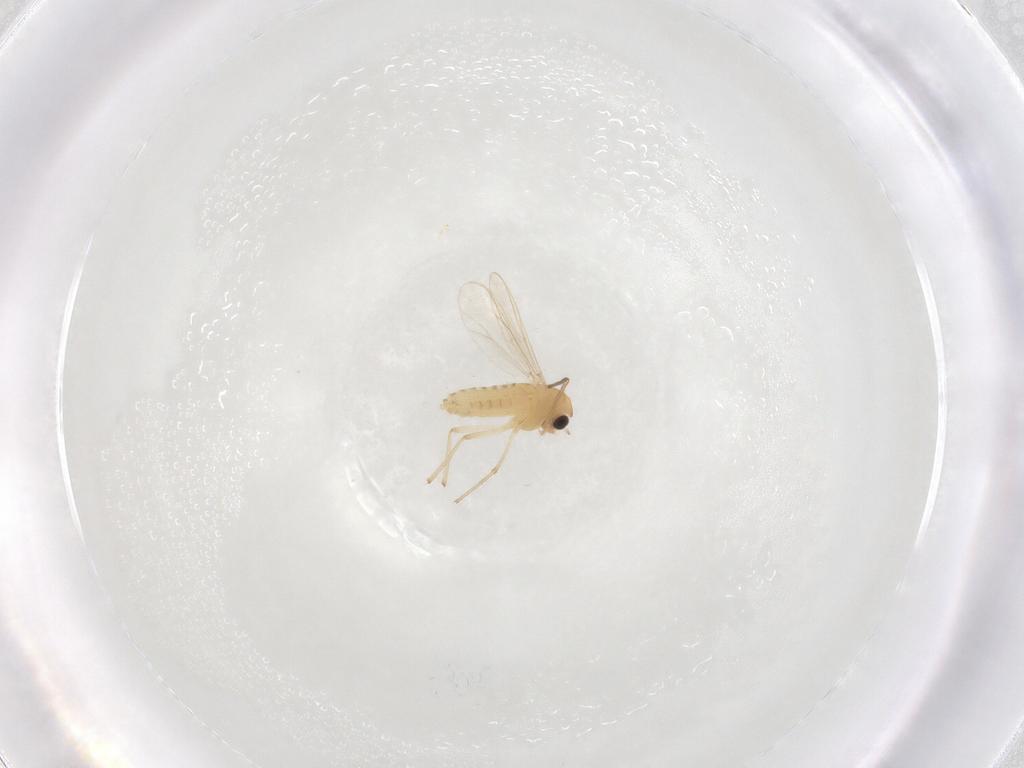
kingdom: Animalia
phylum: Arthropoda
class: Insecta
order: Diptera
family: Chironomidae
